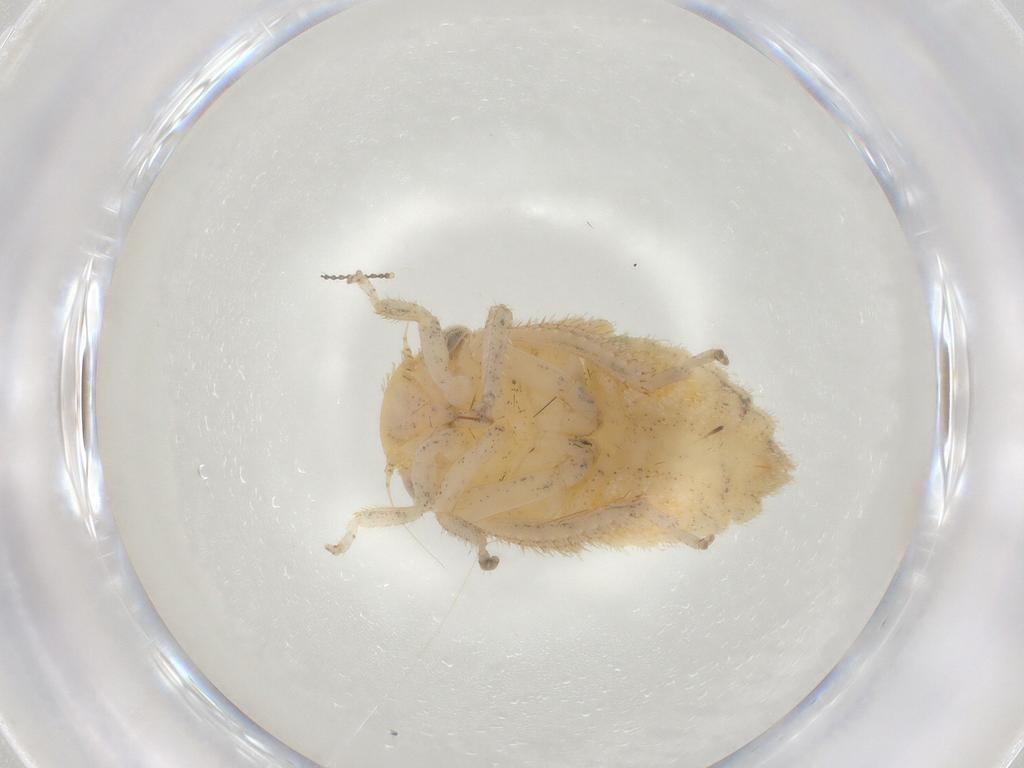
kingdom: Animalia
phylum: Arthropoda
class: Insecta
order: Hemiptera
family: Cicadellidae
